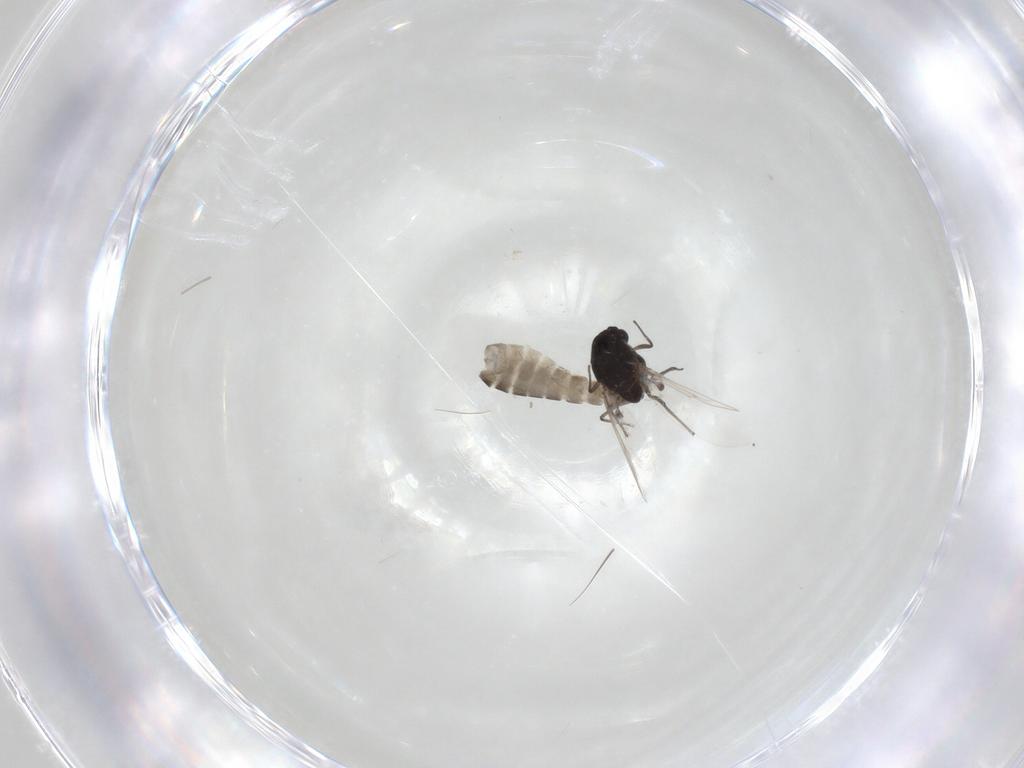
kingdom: Animalia
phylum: Arthropoda
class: Insecta
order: Diptera
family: Chironomidae
